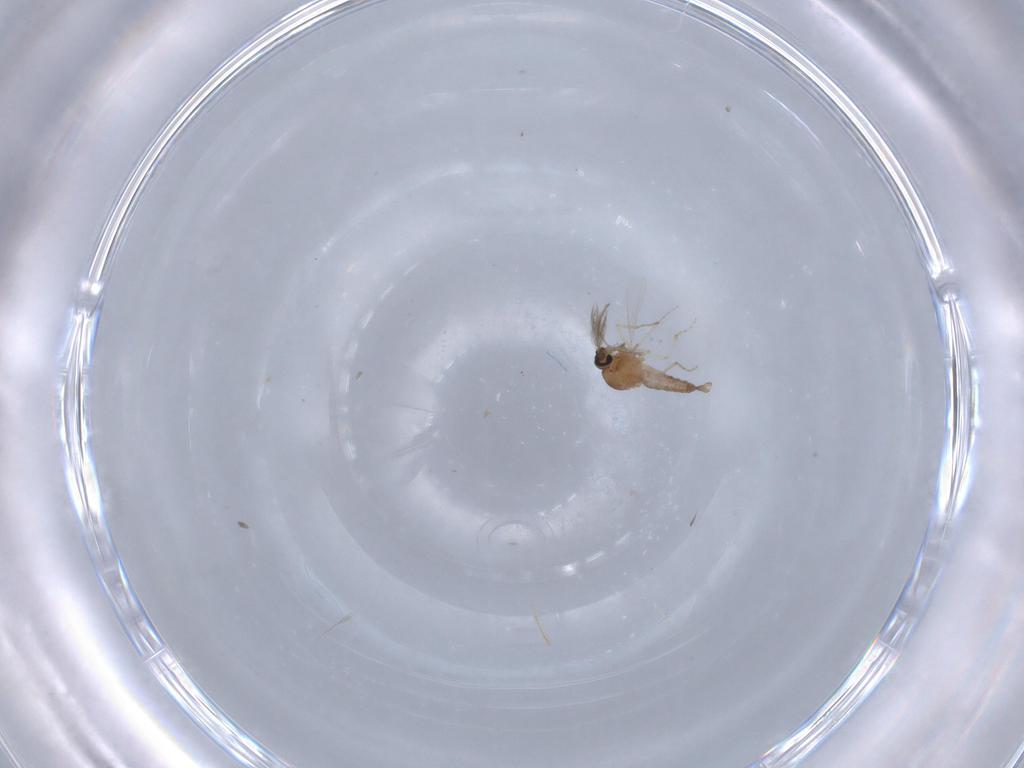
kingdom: Animalia
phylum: Arthropoda
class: Insecta
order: Diptera
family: Ceratopogonidae
